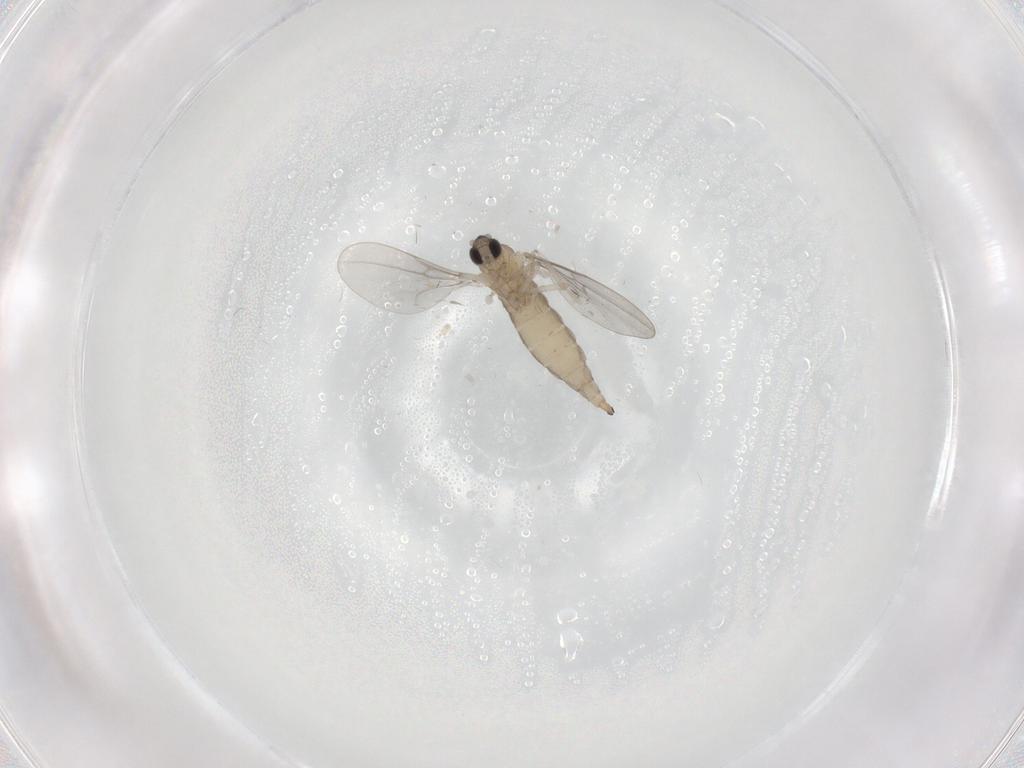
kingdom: Animalia
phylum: Arthropoda
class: Insecta
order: Diptera
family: Cecidomyiidae
